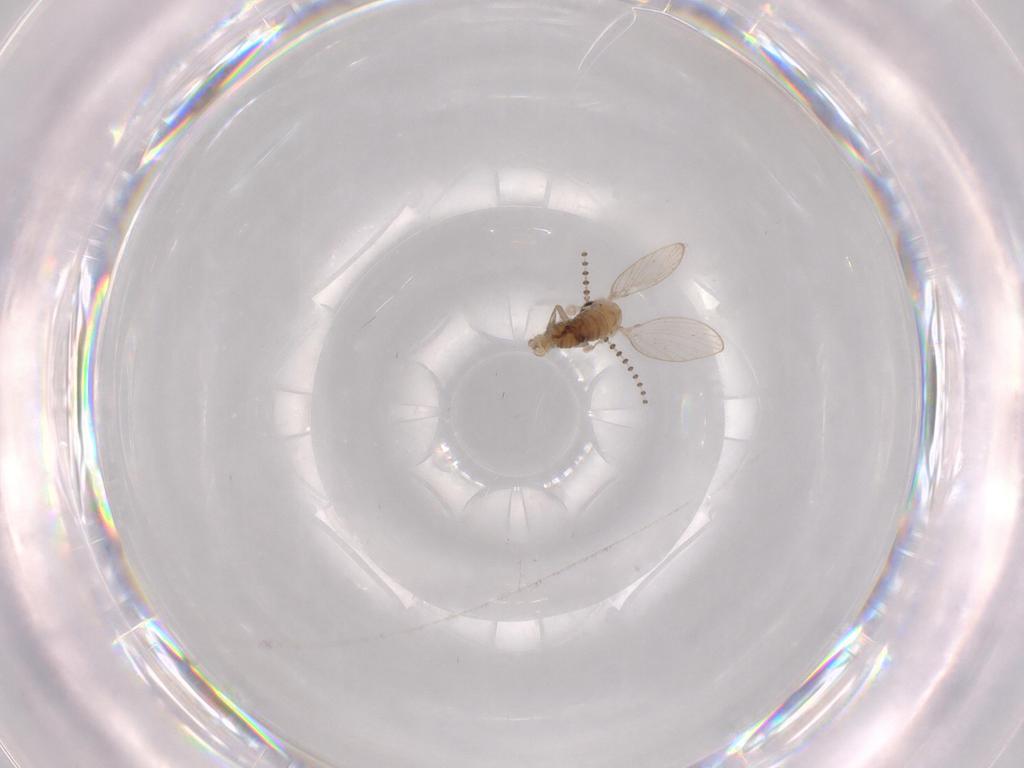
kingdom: Animalia
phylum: Arthropoda
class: Insecta
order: Diptera
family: Psychodidae
